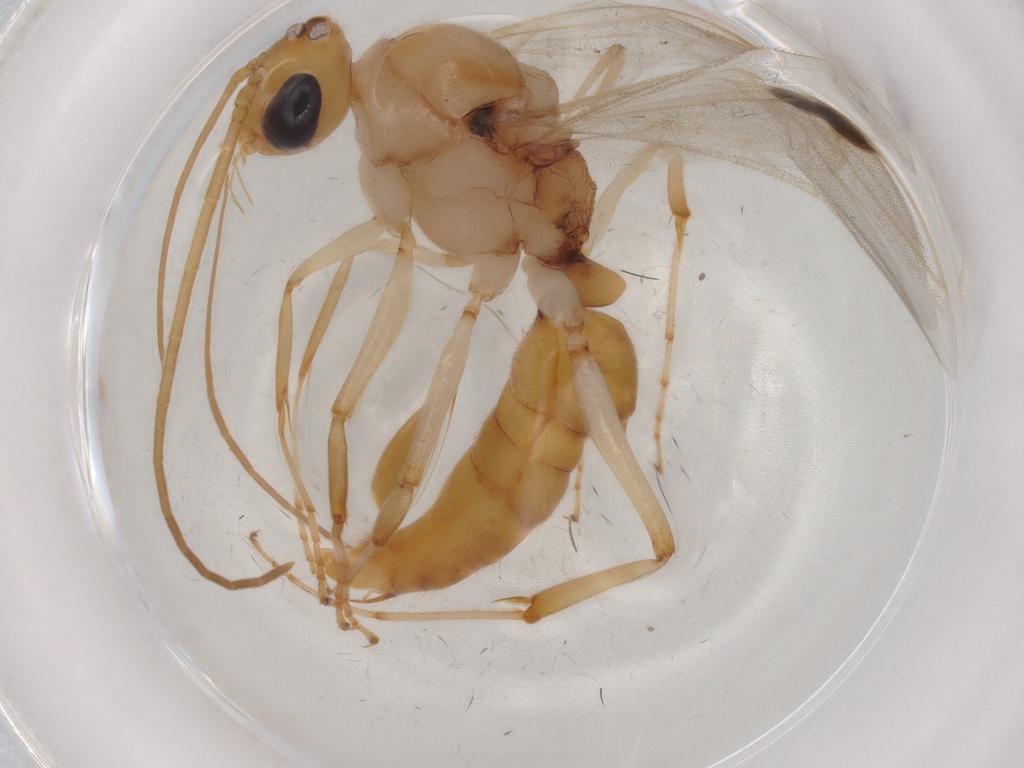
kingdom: Animalia
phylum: Arthropoda
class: Insecta
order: Hymenoptera
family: Formicidae
